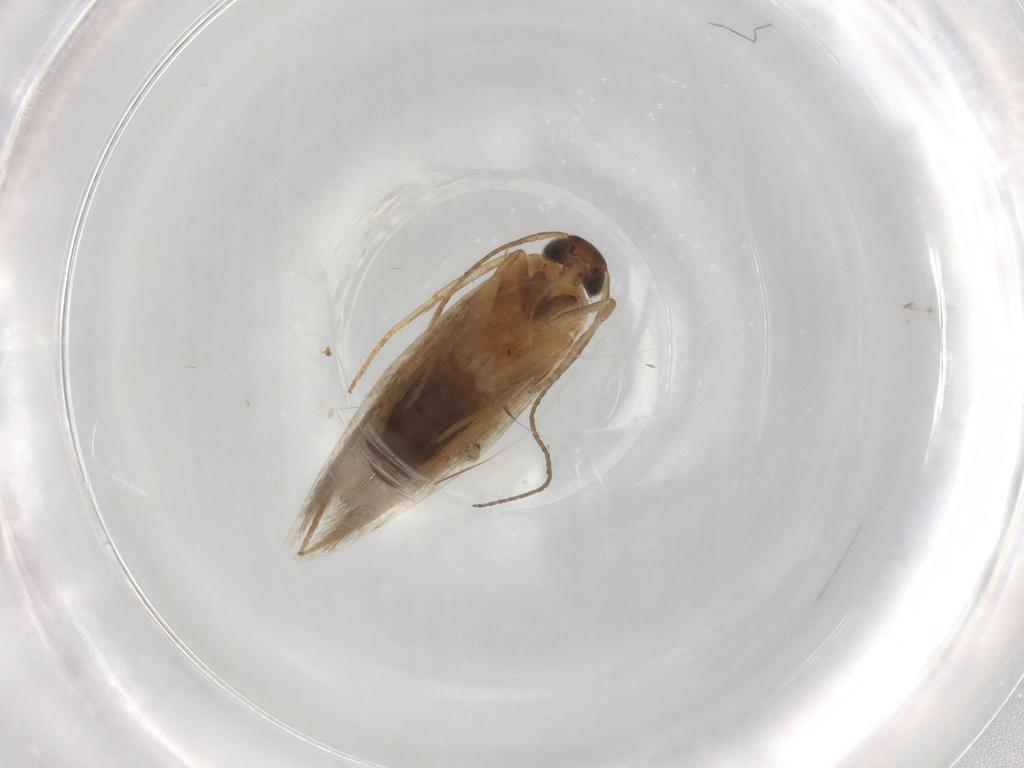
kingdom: Animalia
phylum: Arthropoda
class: Insecta
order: Lepidoptera
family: Gelechiidae
